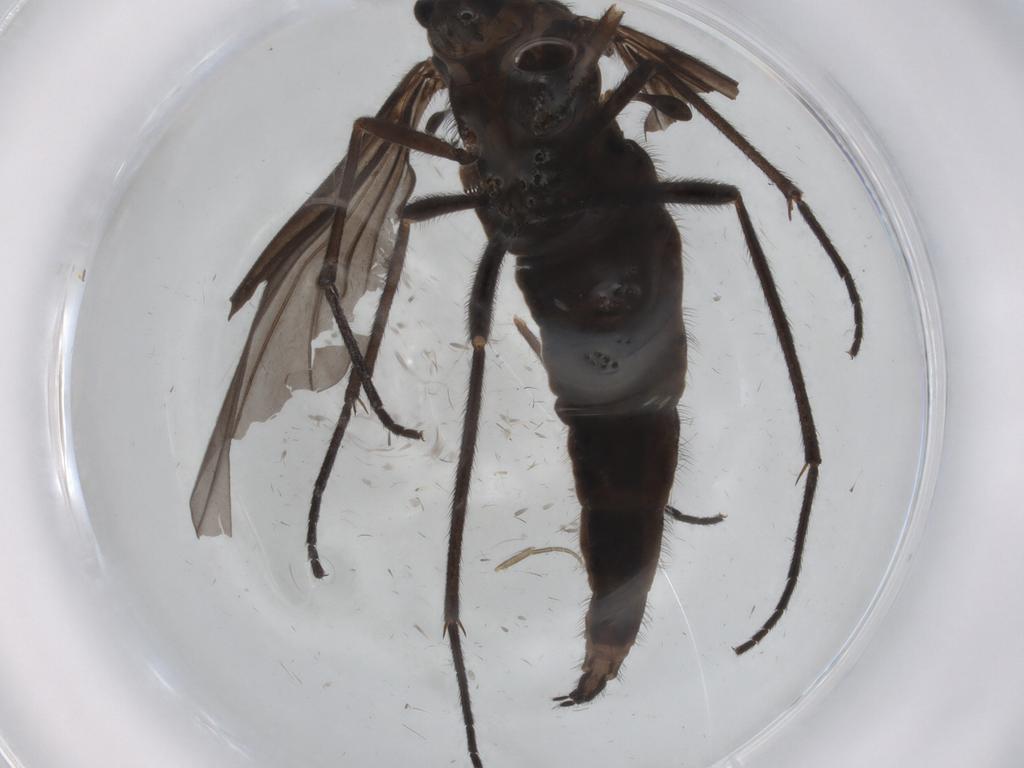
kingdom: Animalia
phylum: Arthropoda
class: Insecta
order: Diptera
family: Sciaridae
